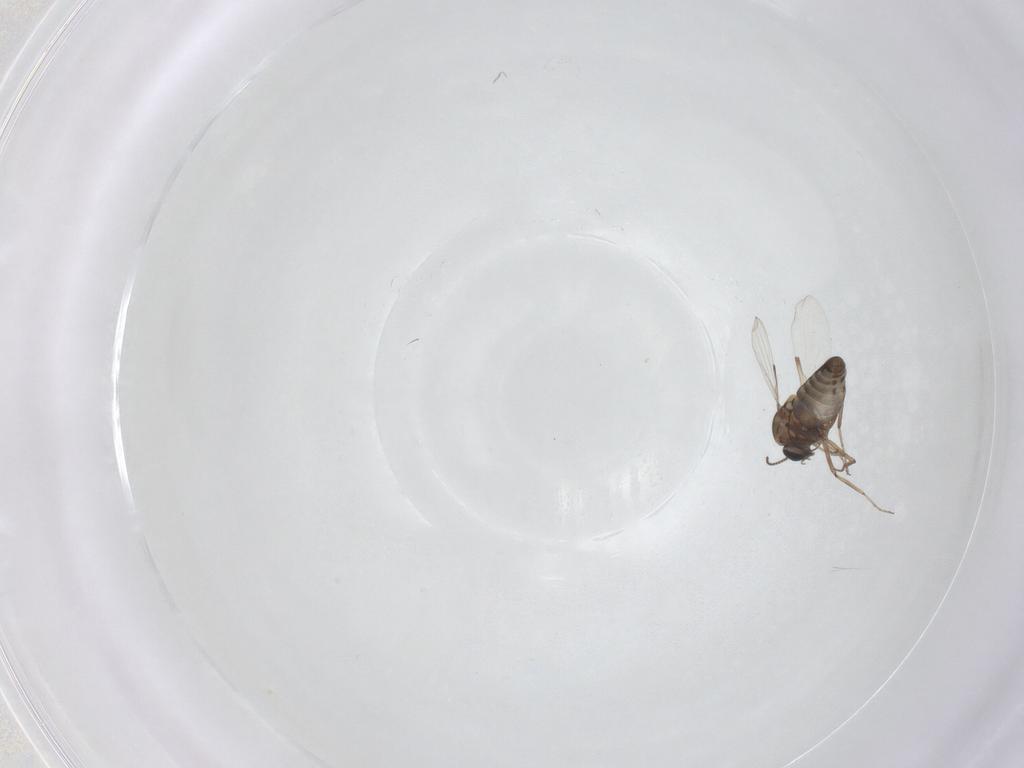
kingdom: Animalia
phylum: Arthropoda
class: Insecta
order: Diptera
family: Ceratopogonidae
